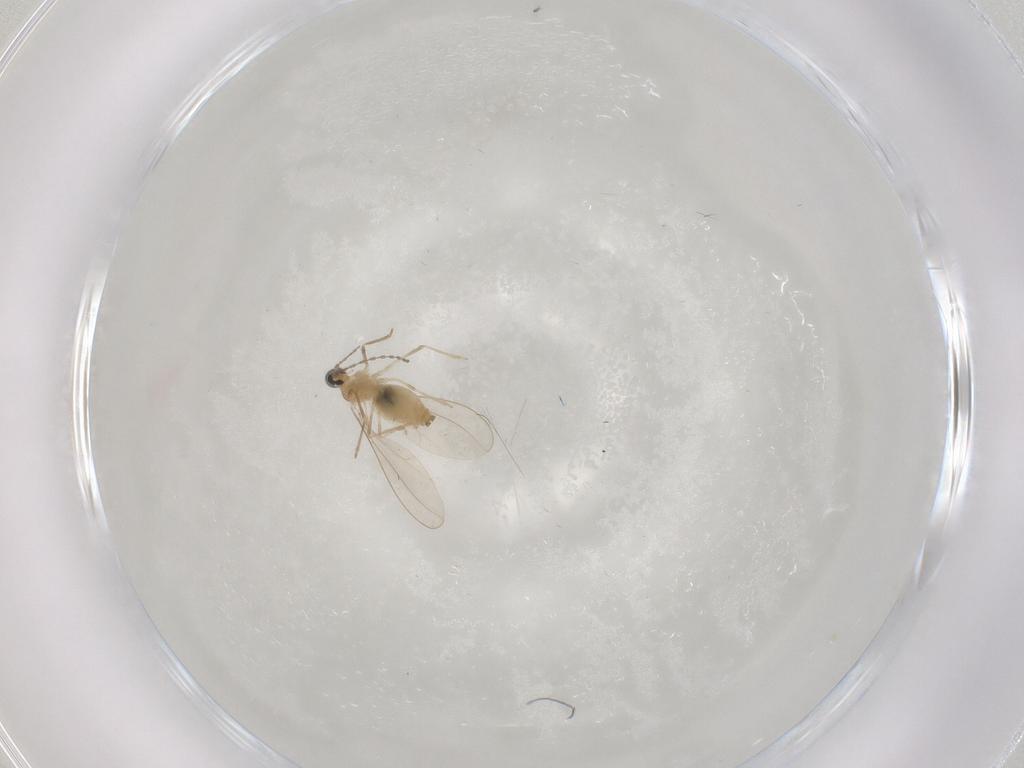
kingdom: Animalia
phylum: Arthropoda
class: Insecta
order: Diptera
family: Cecidomyiidae
